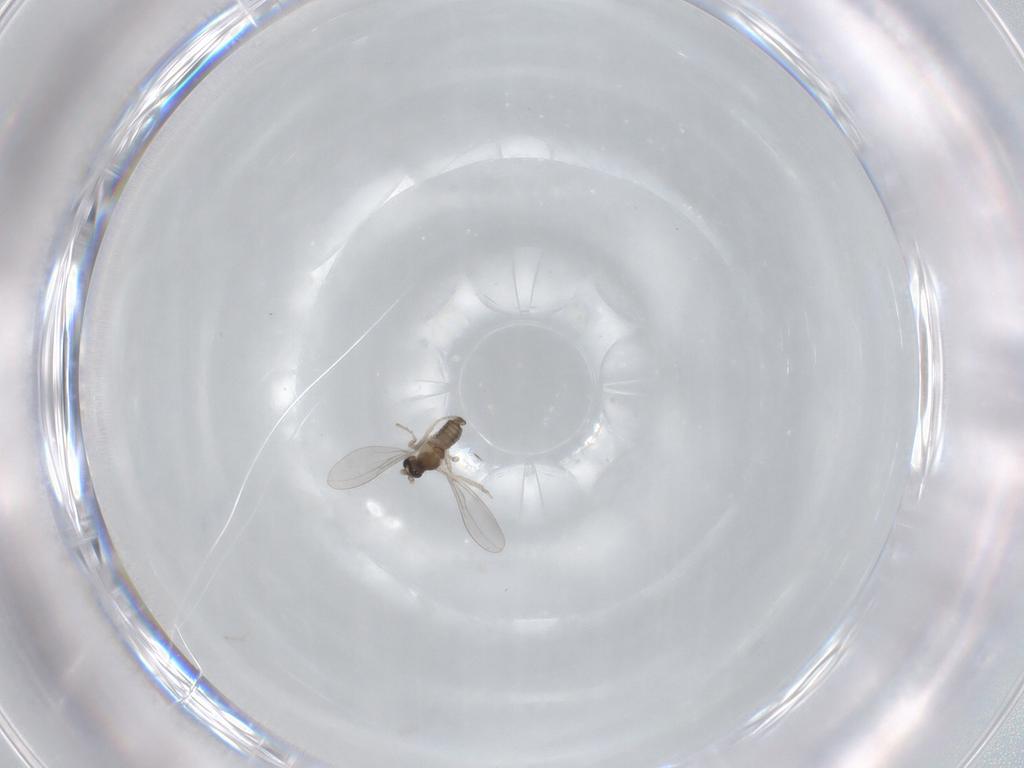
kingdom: Animalia
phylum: Arthropoda
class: Insecta
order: Diptera
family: Cecidomyiidae
